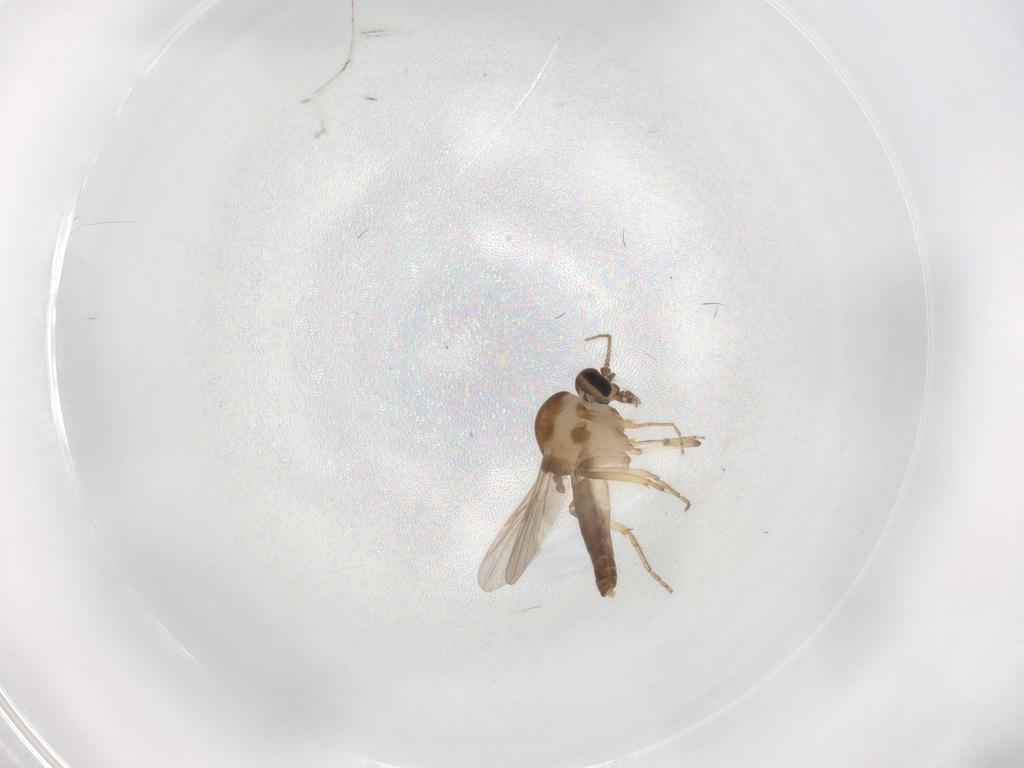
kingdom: Animalia
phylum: Arthropoda
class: Insecta
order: Diptera
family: Ceratopogonidae
